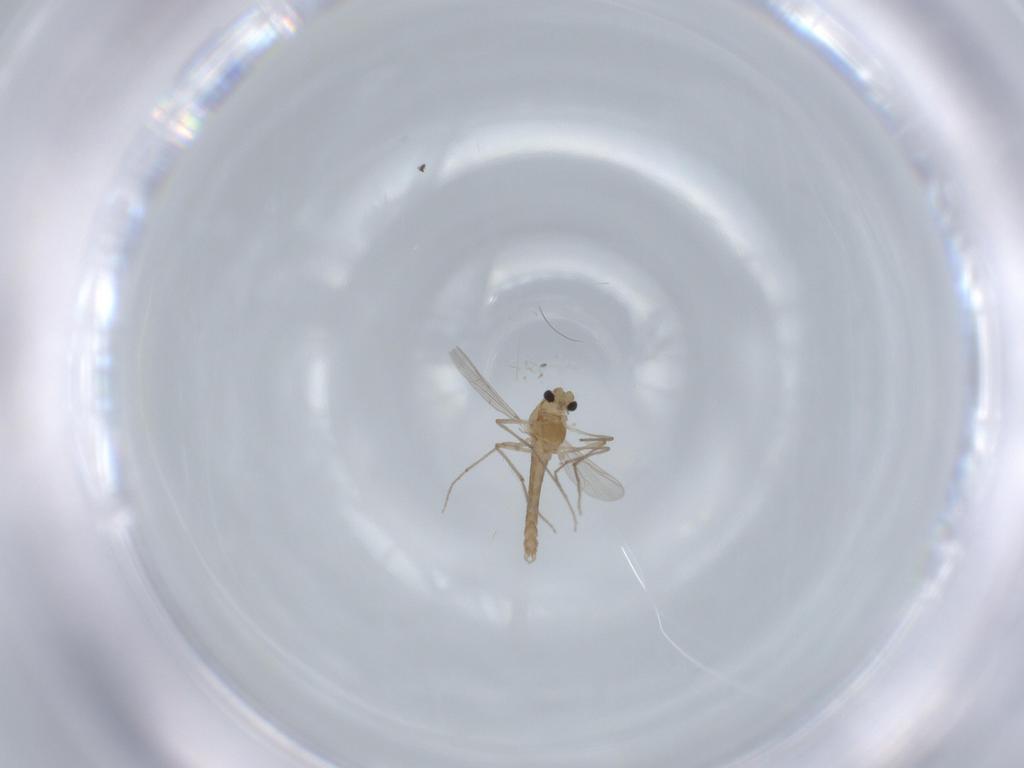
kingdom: Animalia
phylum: Arthropoda
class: Insecta
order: Diptera
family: Chironomidae
